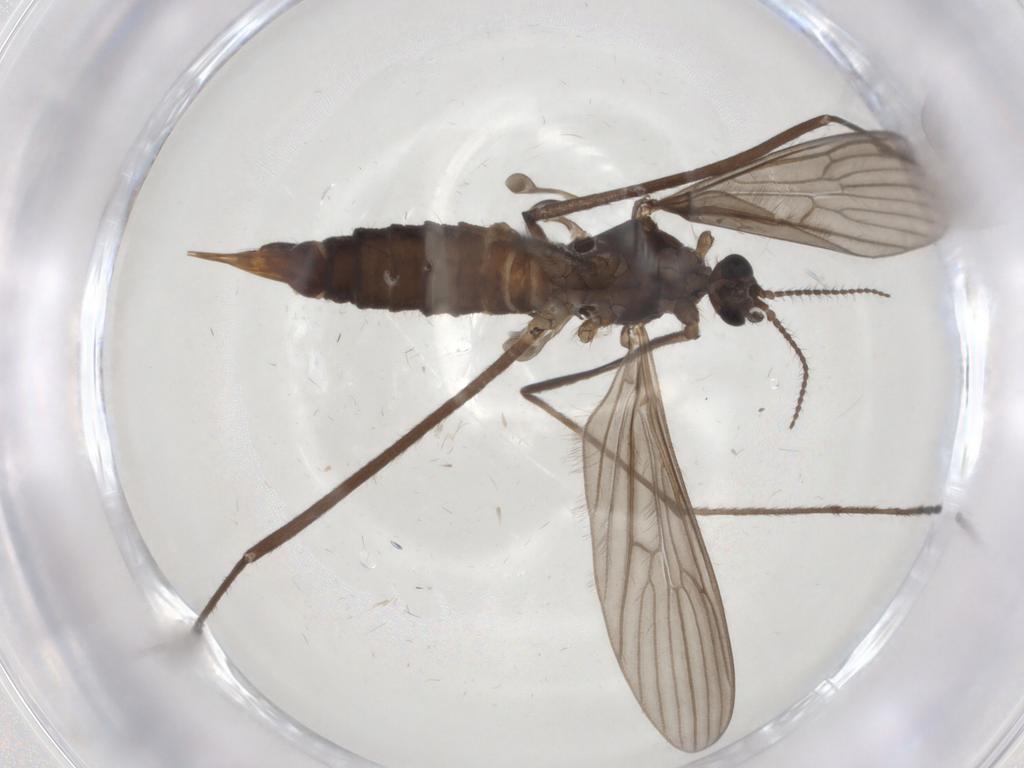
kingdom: Animalia
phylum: Arthropoda
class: Insecta
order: Diptera
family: Limoniidae
